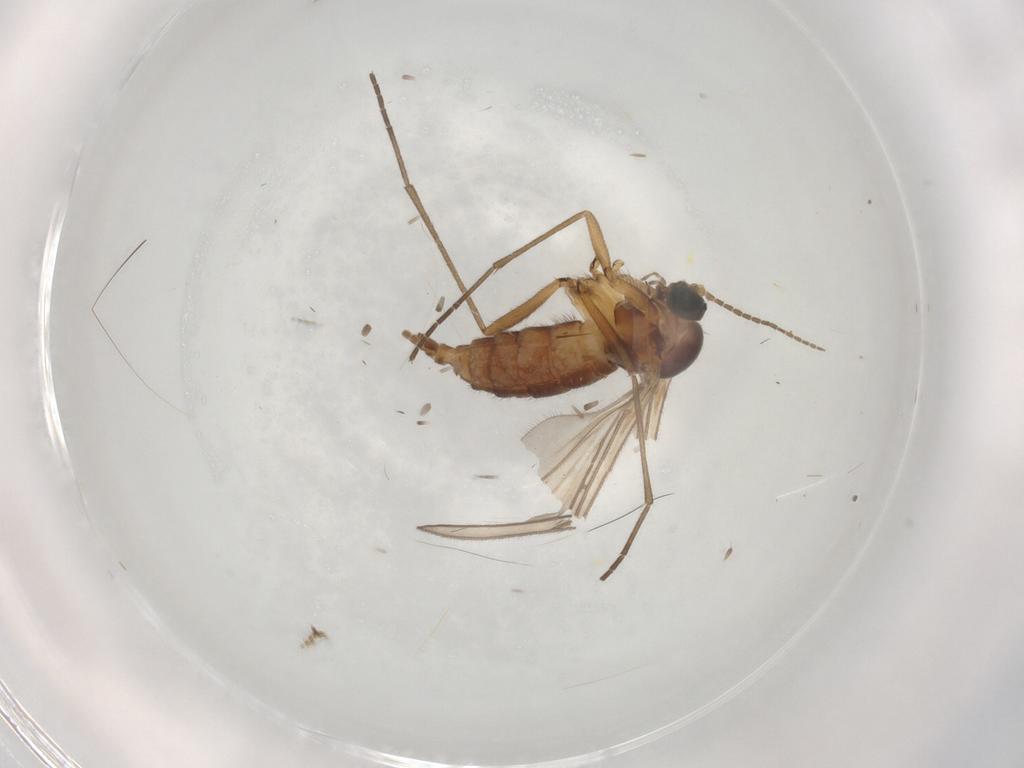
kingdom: Animalia
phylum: Arthropoda
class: Insecta
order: Diptera
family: Sciaridae
